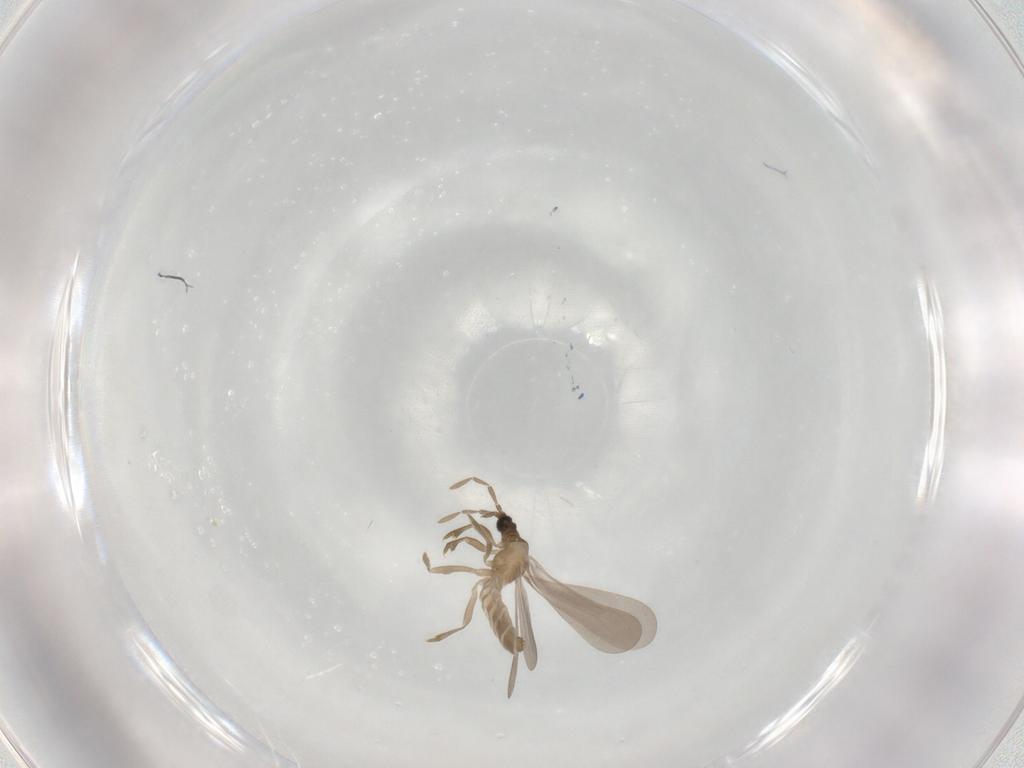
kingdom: Animalia
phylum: Arthropoda
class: Insecta
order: Hemiptera
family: Enicocephalidae
